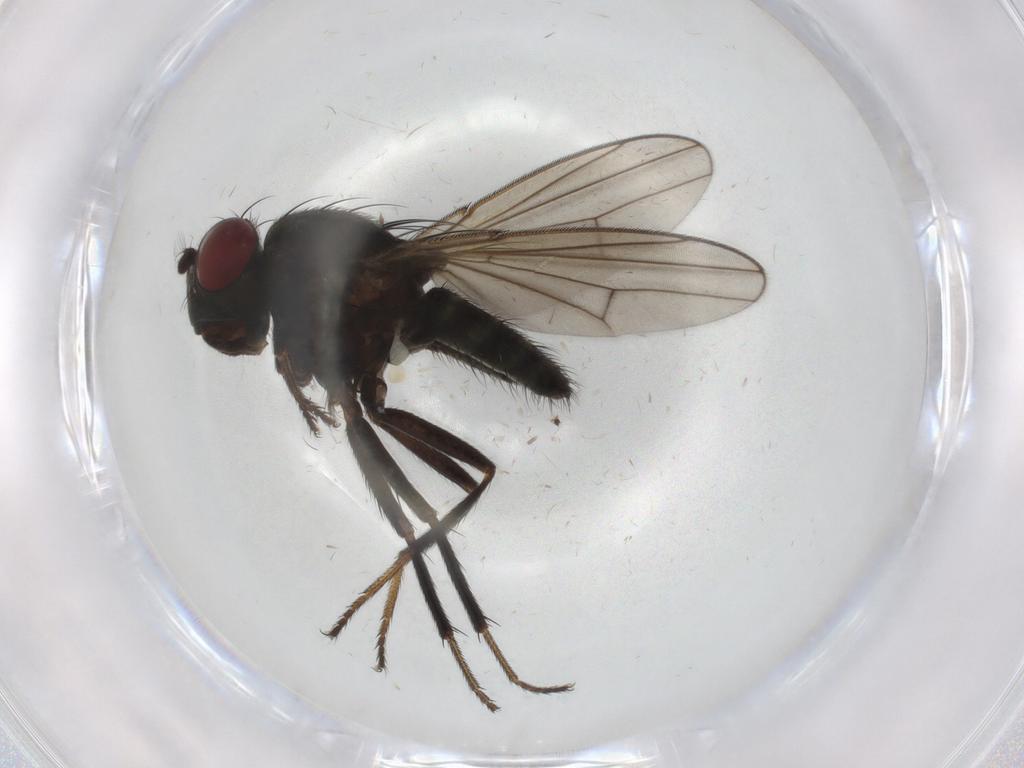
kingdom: Animalia
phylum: Arthropoda
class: Insecta
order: Diptera
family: Ephydridae
